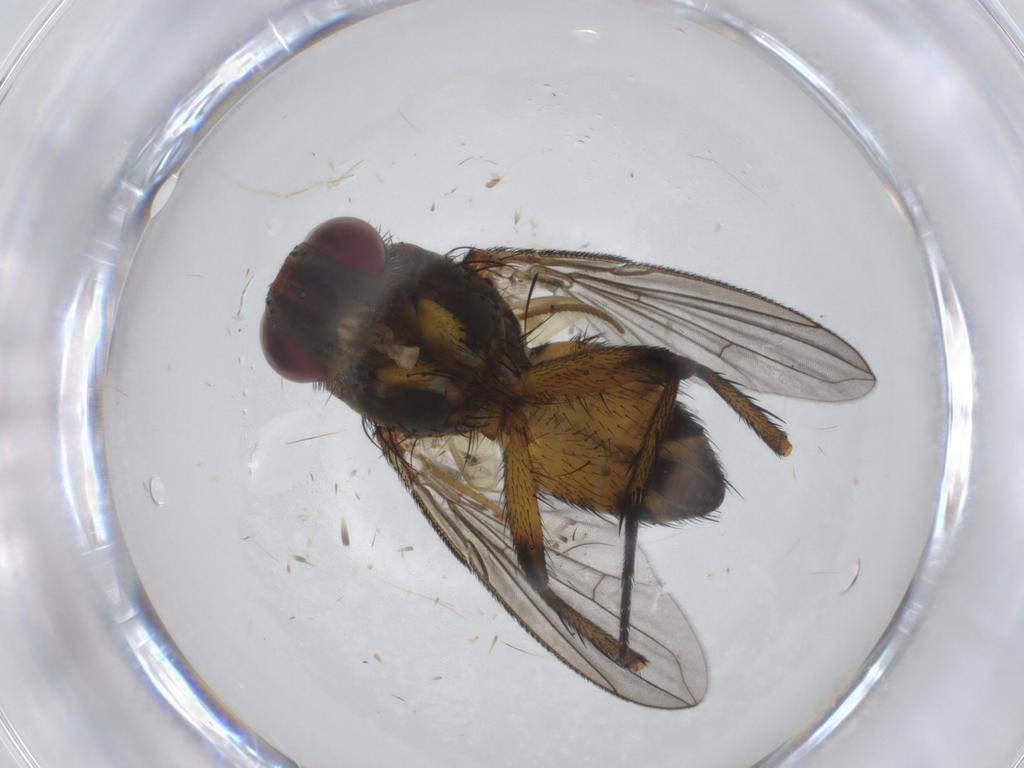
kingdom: Animalia
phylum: Arthropoda
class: Insecta
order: Diptera
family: Tachinidae
